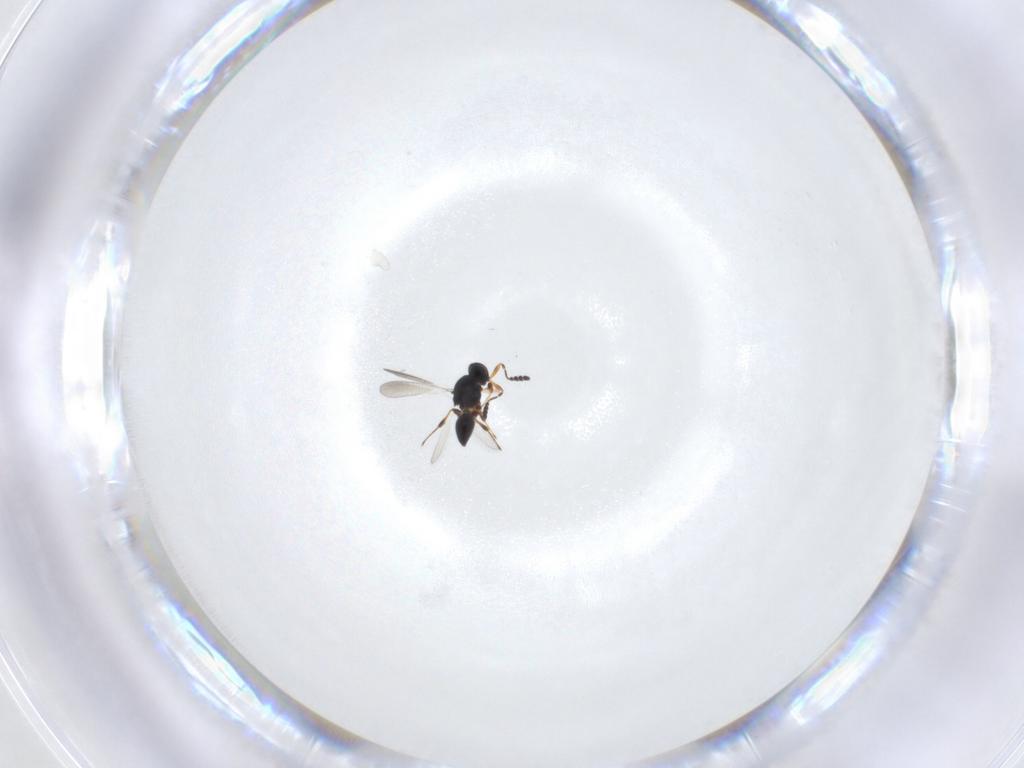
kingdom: Animalia
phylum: Arthropoda
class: Insecta
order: Hymenoptera
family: Platygastridae
